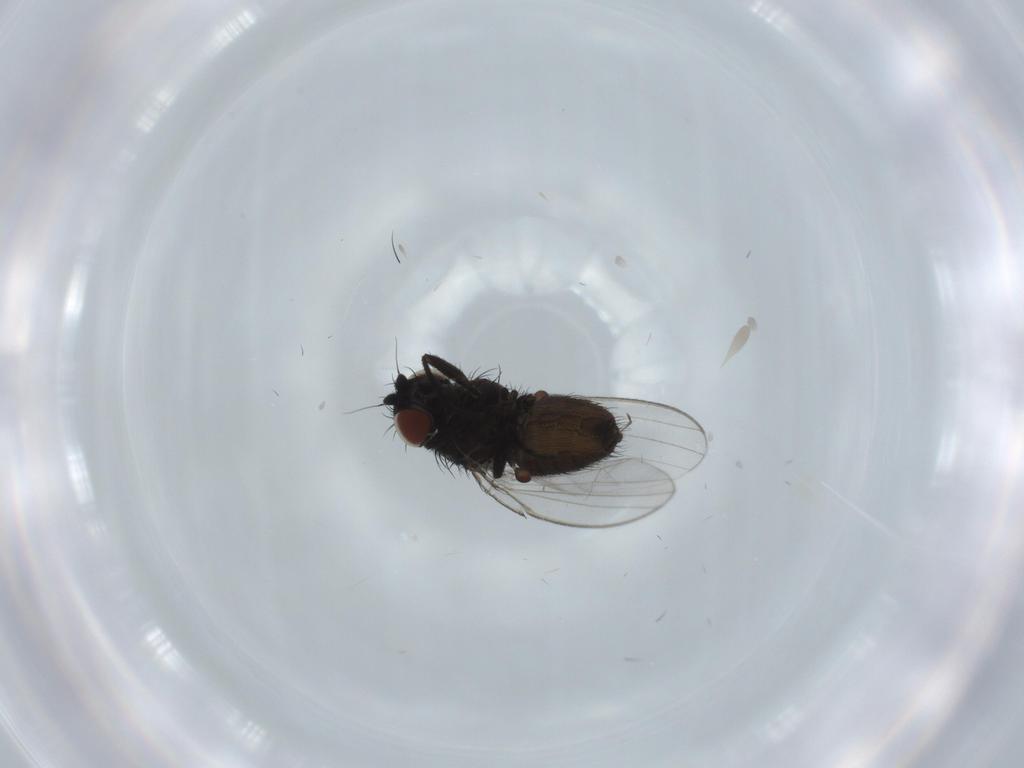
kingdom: Animalia
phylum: Arthropoda
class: Insecta
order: Diptera
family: Milichiidae
